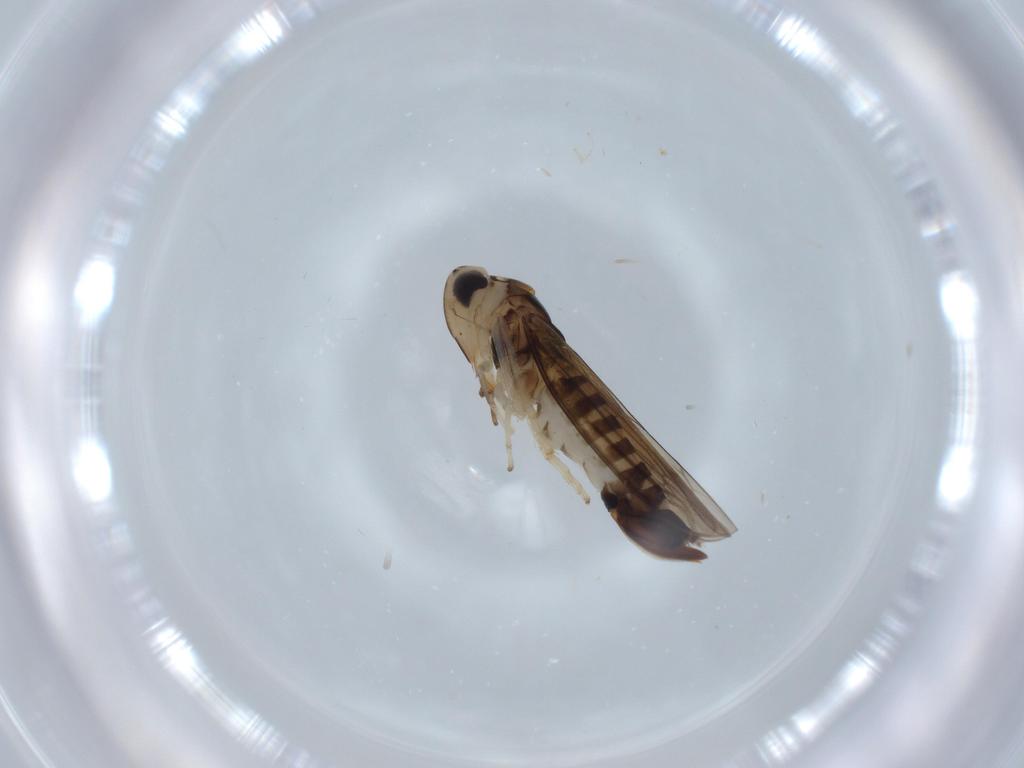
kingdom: Animalia
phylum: Arthropoda
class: Insecta
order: Hemiptera
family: Cicadellidae
